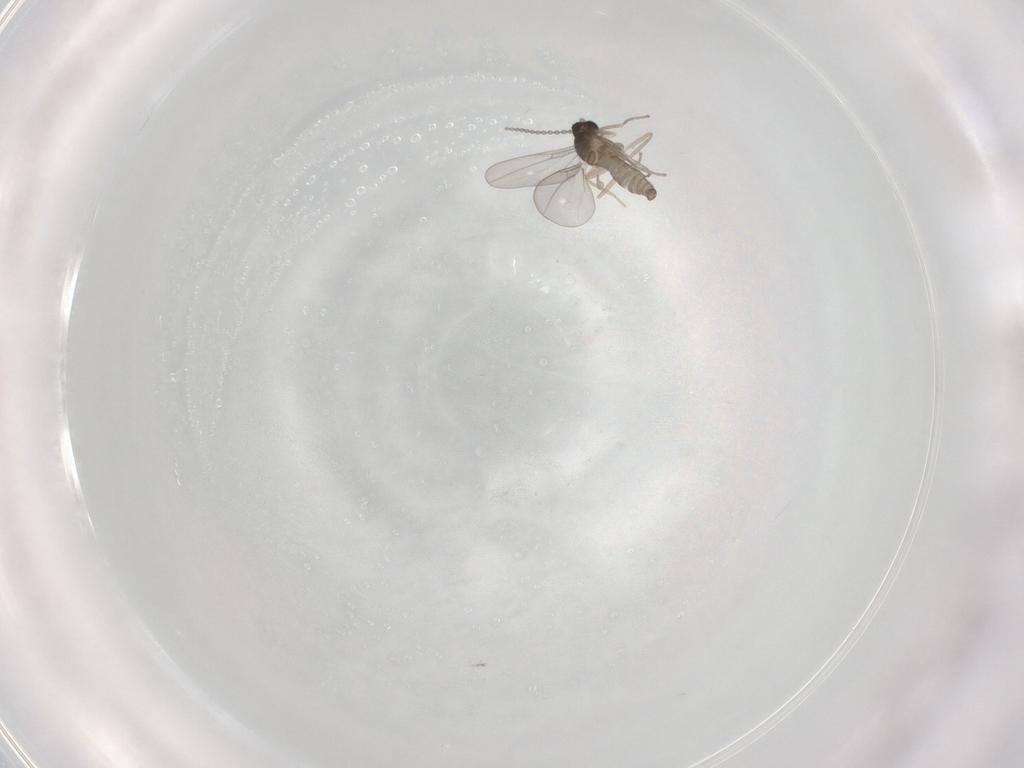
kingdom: Animalia
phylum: Arthropoda
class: Insecta
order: Diptera
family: Cecidomyiidae
